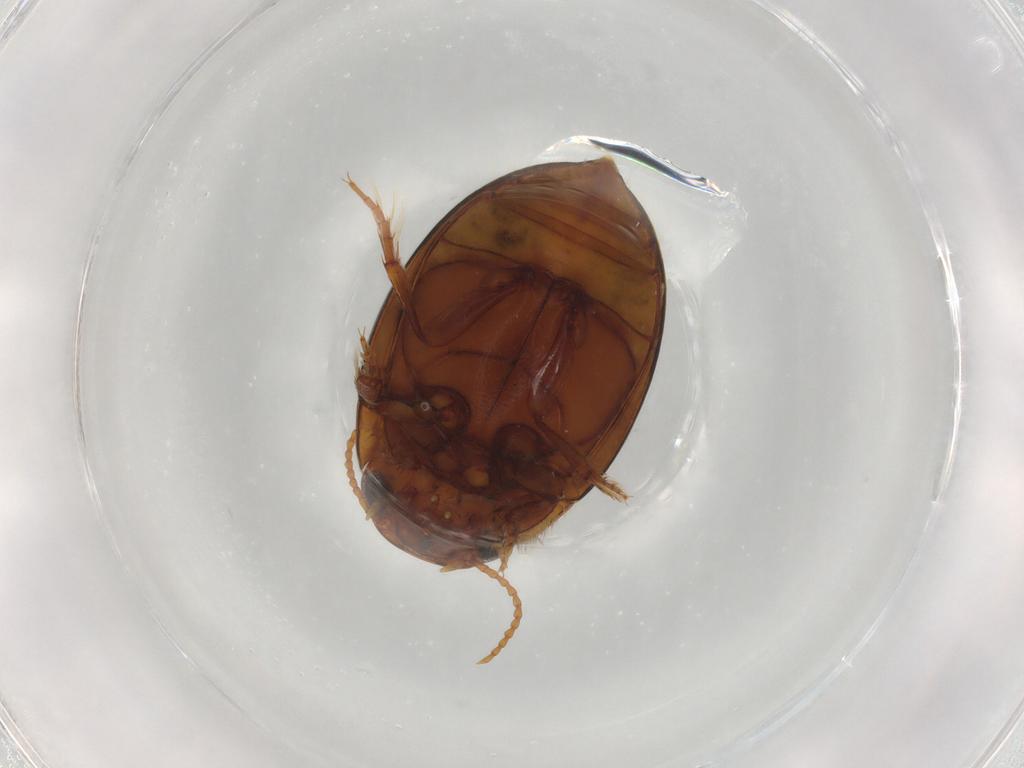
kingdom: Animalia
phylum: Arthropoda
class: Insecta
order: Coleoptera
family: Dytiscidae
